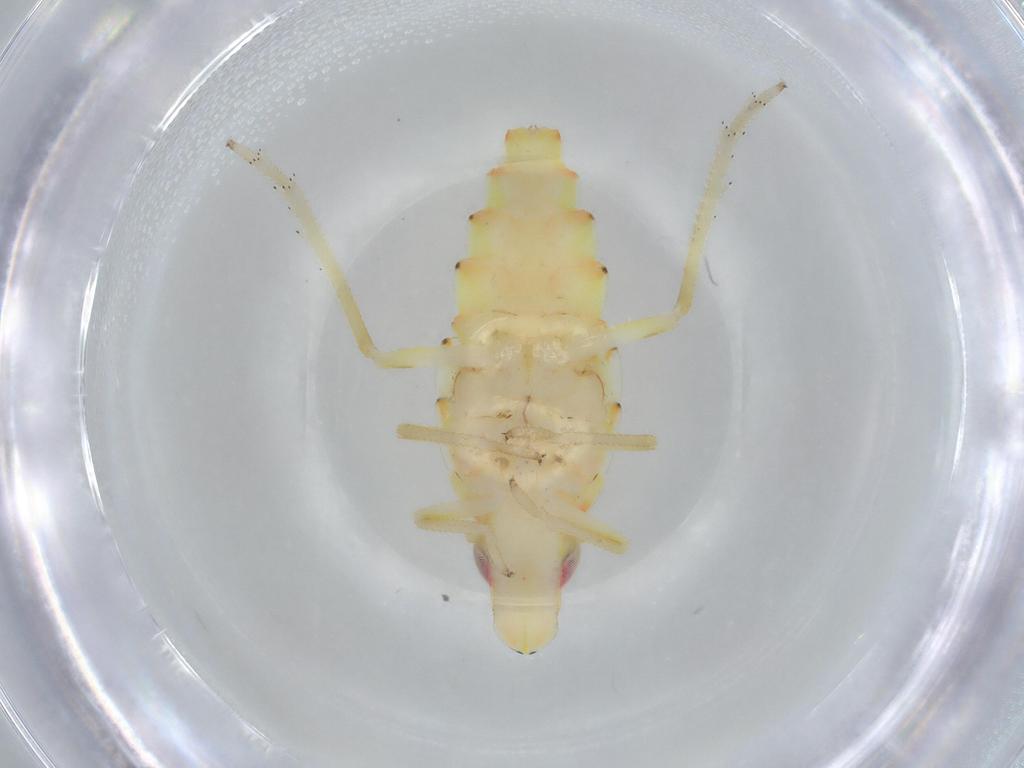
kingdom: Animalia
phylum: Arthropoda
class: Insecta
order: Hemiptera
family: Tropiduchidae
